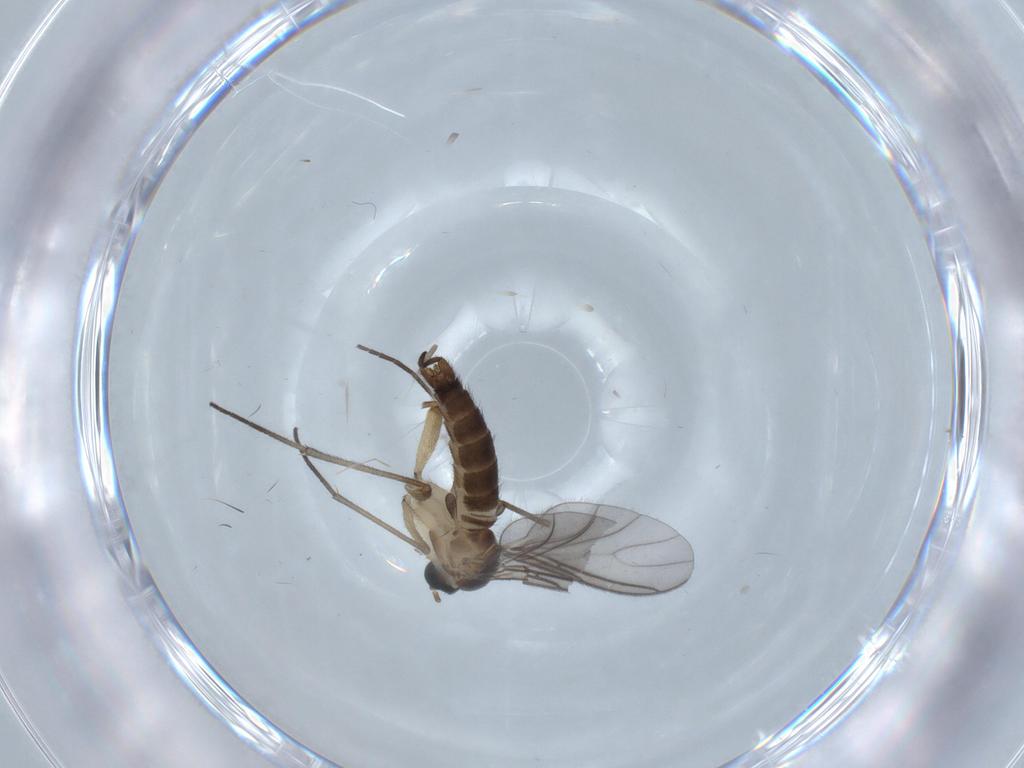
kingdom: Animalia
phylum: Arthropoda
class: Insecta
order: Diptera
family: Sciaridae
